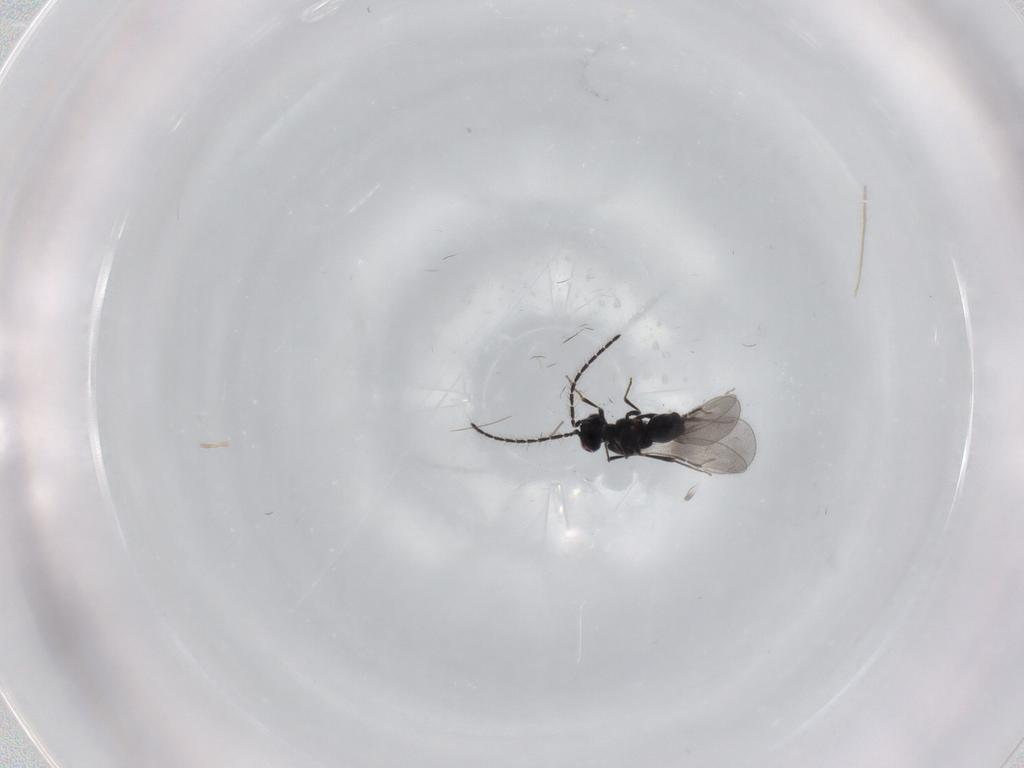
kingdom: Animalia
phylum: Arthropoda
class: Insecta
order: Hymenoptera
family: Ceraphronidae
